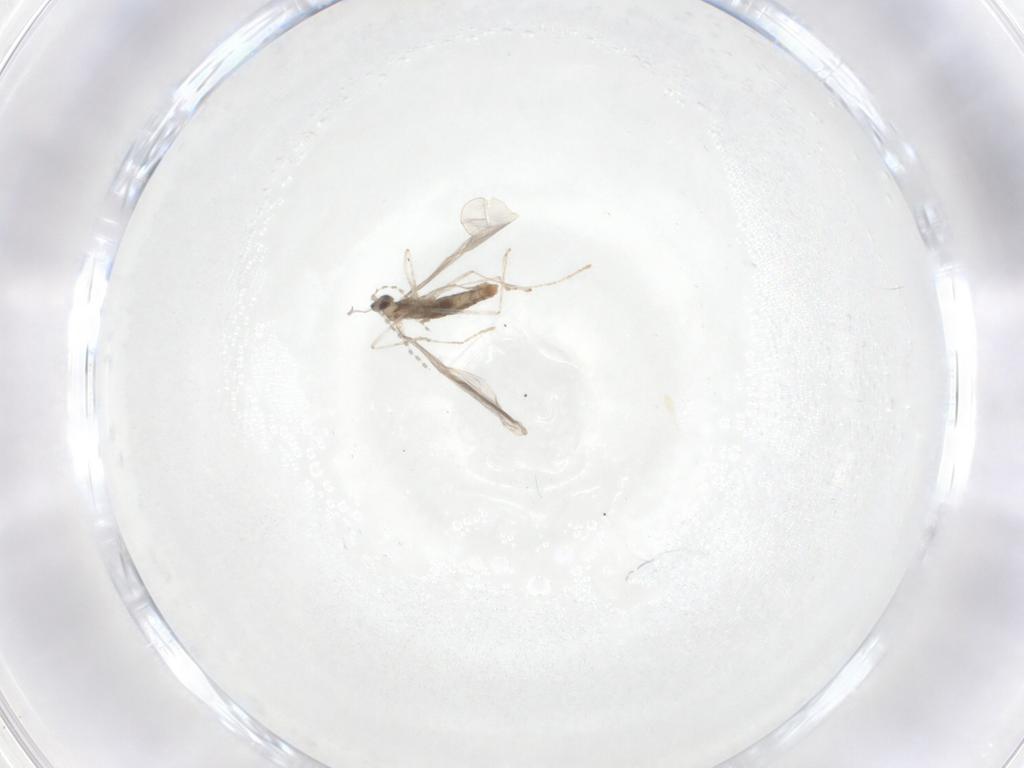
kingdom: Animalia
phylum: Arthropoda
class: Insecta
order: Diptera
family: Cecidomyiidae
